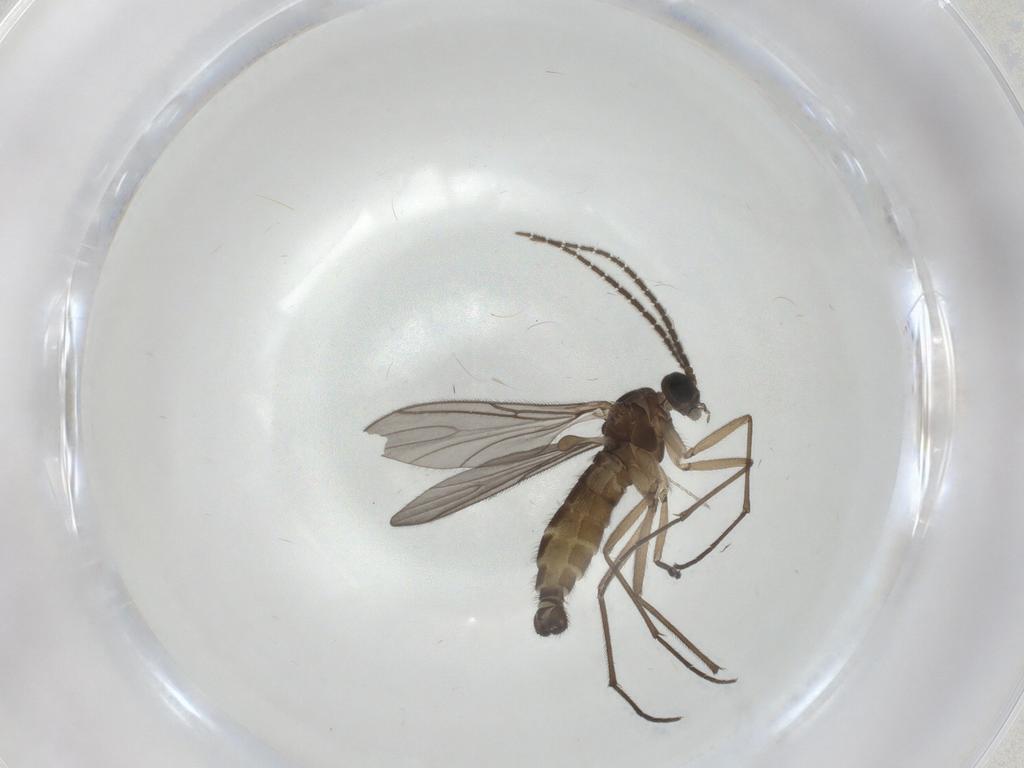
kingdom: Animalia
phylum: Arthropoda
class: Insecta
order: Diptera
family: Sciaridae
